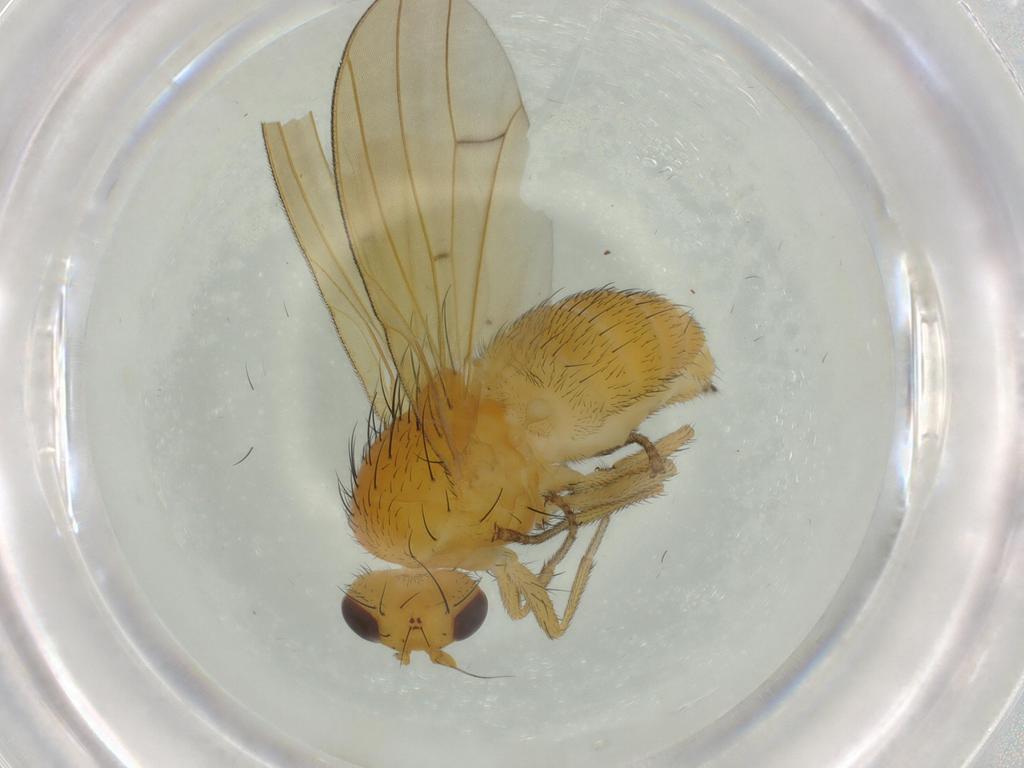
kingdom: Animalia
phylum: Arthropoda
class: Insecta
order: Diptera
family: Lauxaniidae
